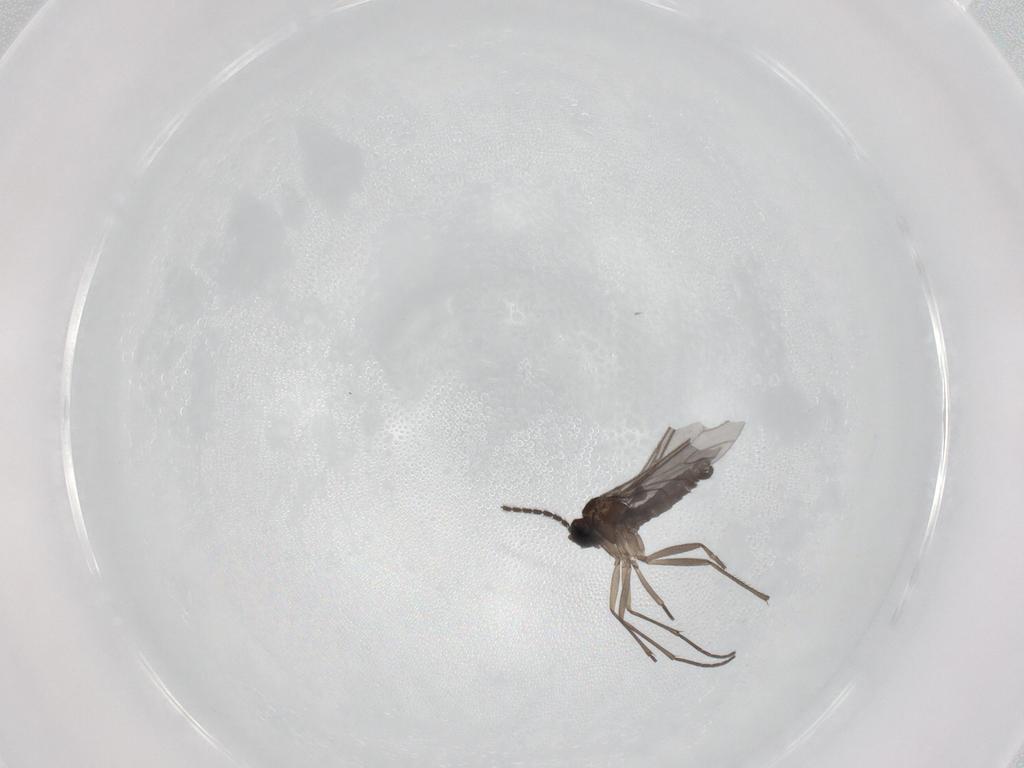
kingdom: Animalia
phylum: Arthropoda
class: Insecta
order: Diptera
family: Sciaridae
